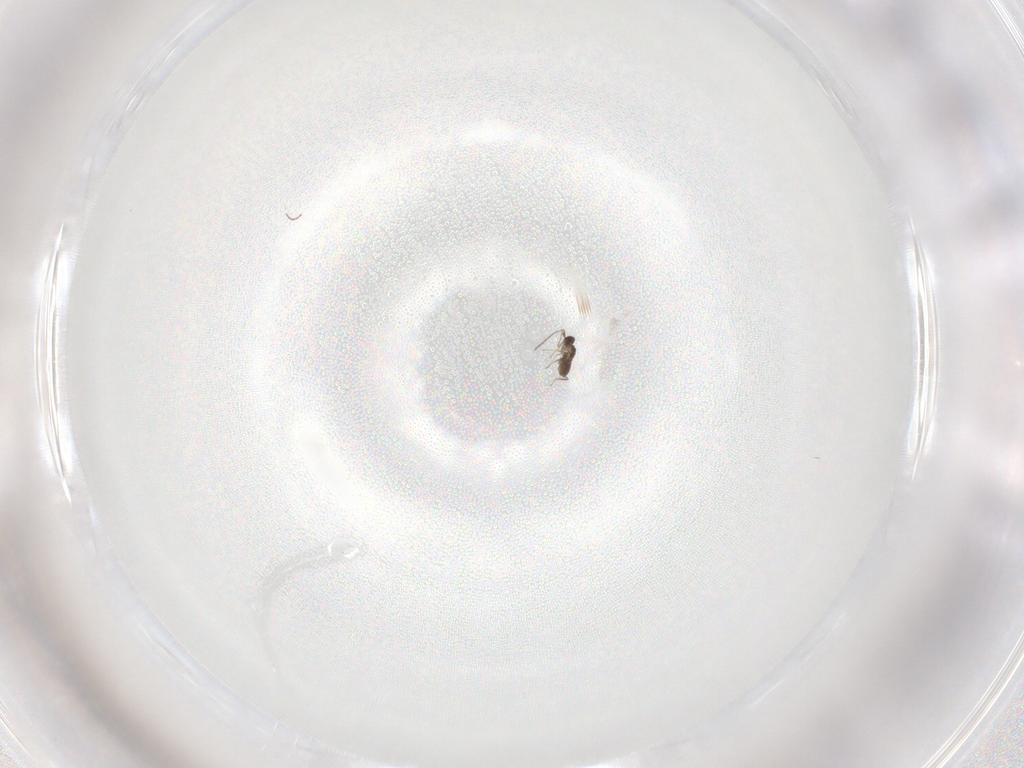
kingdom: Animalia
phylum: Arthropoda
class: Insecta
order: Hymenoptera
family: Mymaridae
